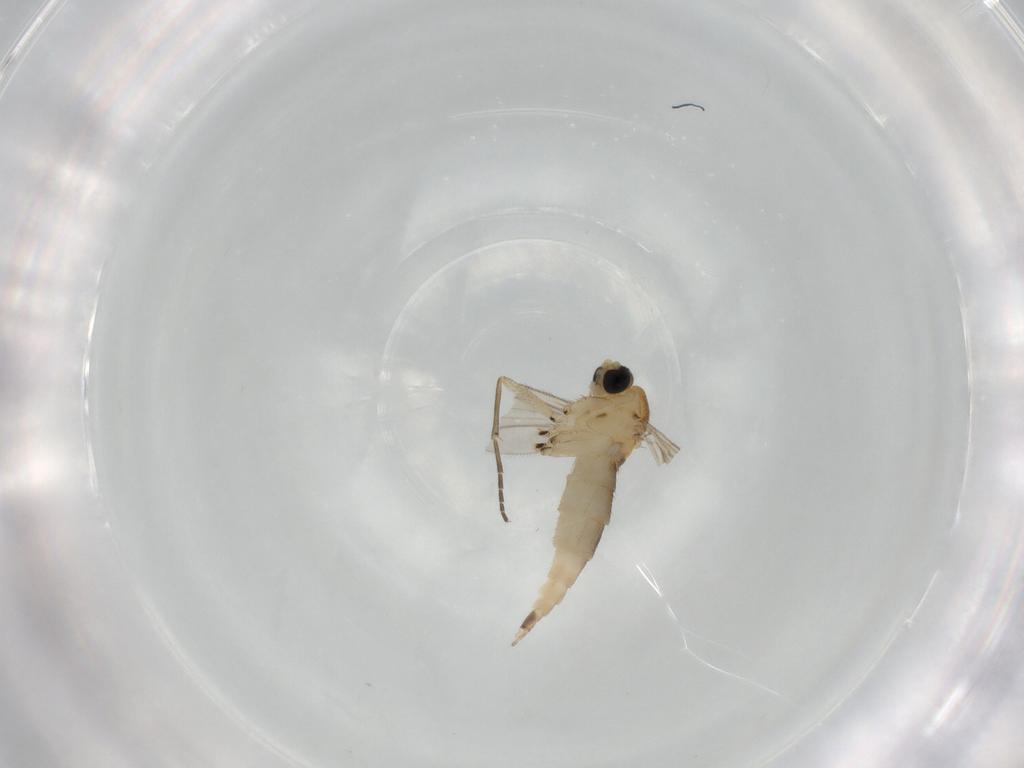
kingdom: Animalia
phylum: Arthropoda
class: Insecta
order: Diptera
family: Sciaridae
